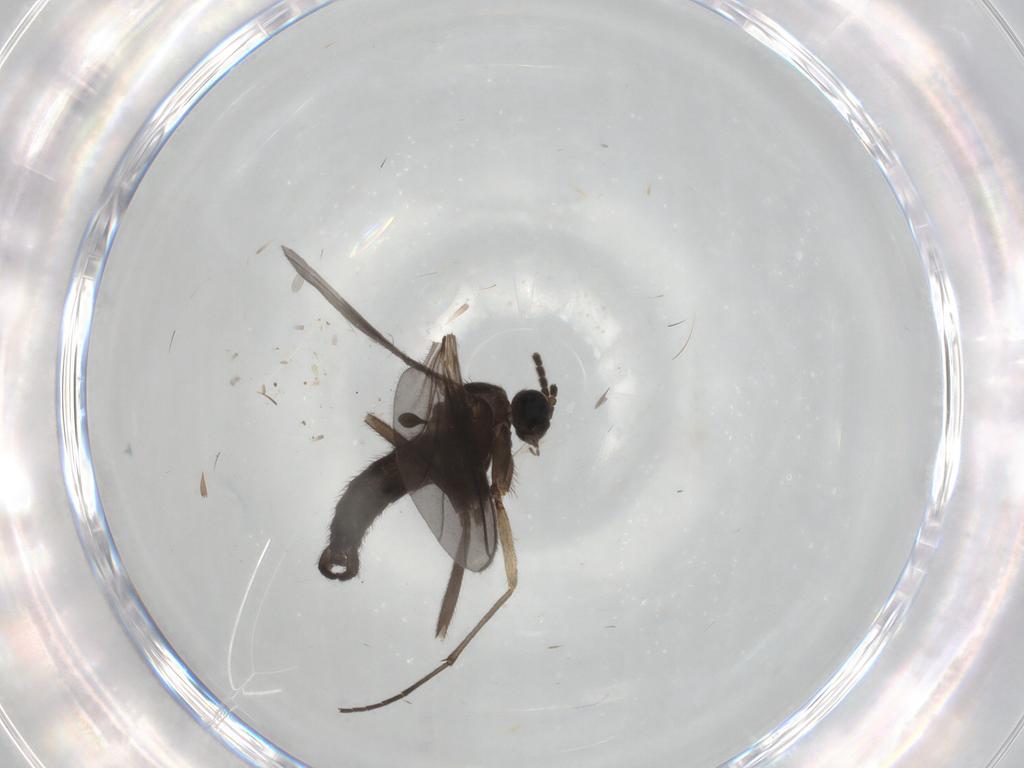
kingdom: Animalia
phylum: Arthropoda
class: Insecta
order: Diptera
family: Sciaridae
